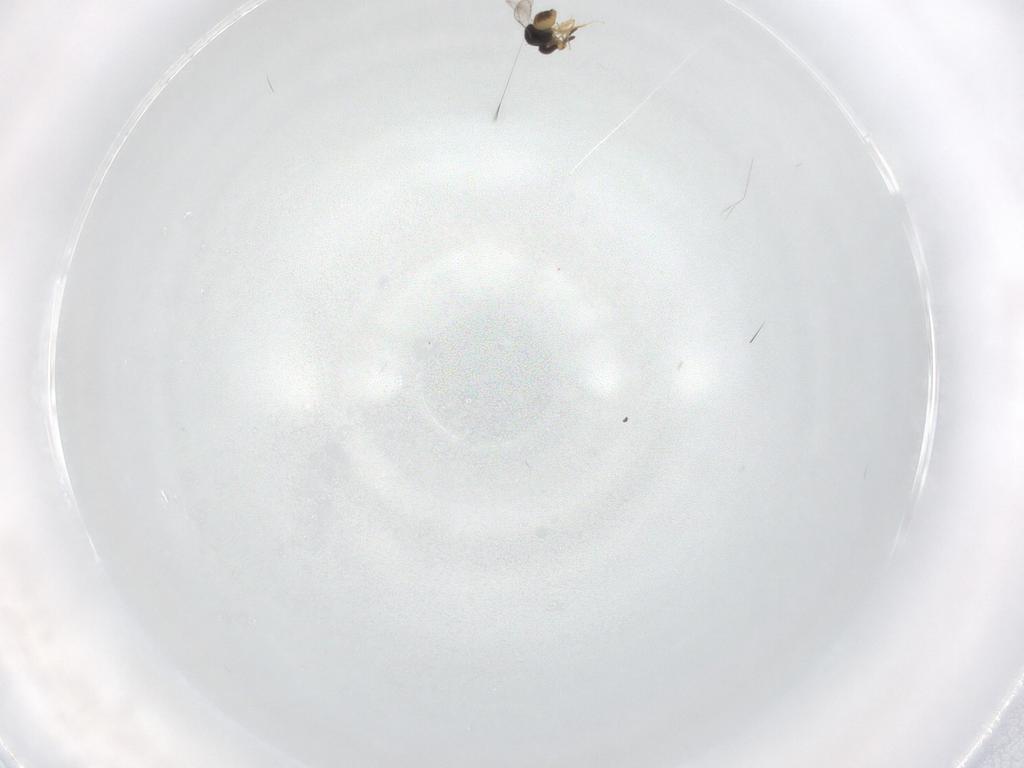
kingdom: Animalia
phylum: Arthropoda
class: Insecta
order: Hymenoptera
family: Formicidae
